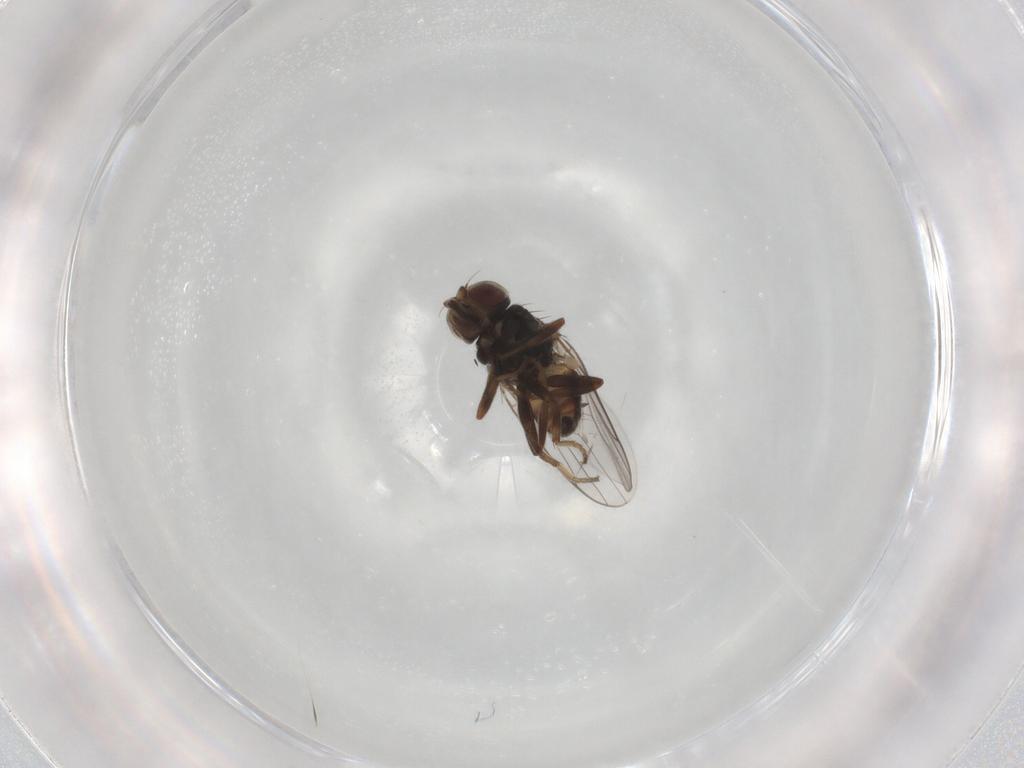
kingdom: Animalia
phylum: Arthropoda
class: Insecta
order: Diptera
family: Chloropidae
